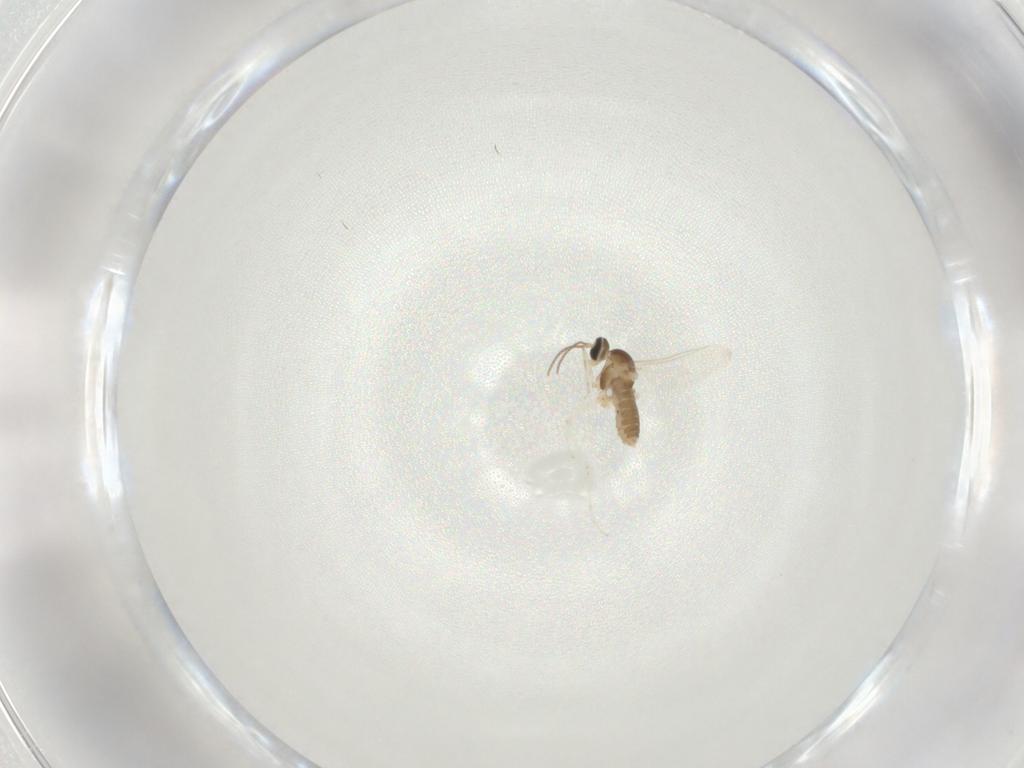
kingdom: Animalia
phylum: Arthropoda
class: Insecta
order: Diptera
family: Cecidomyiidae
